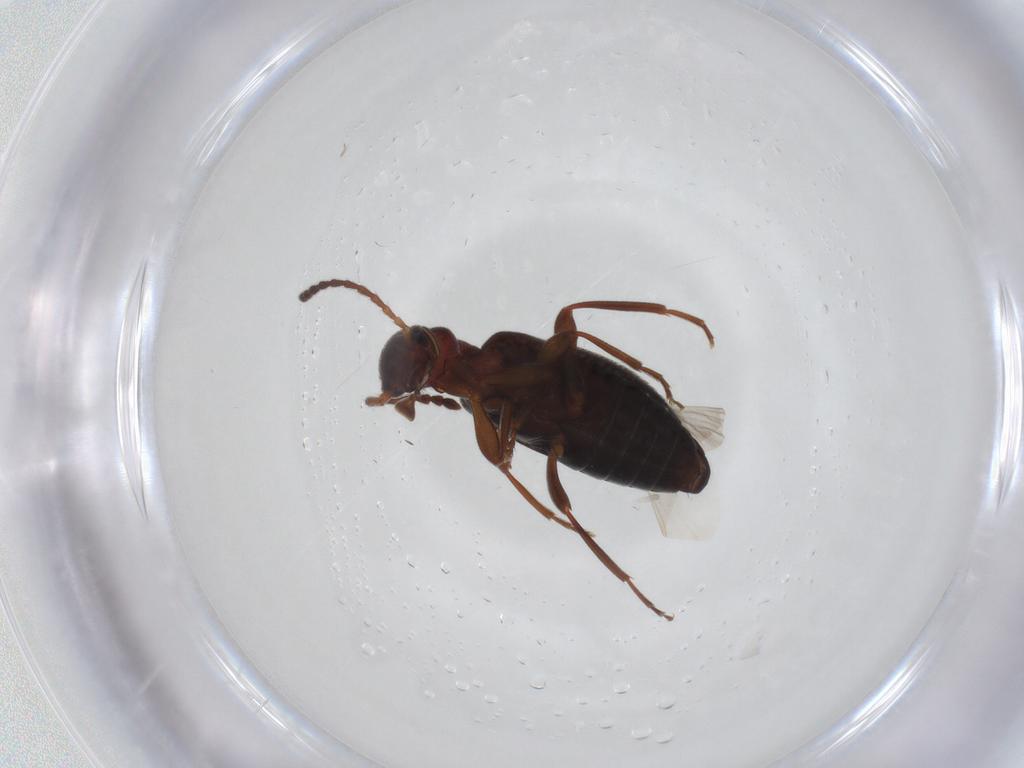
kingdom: Animalia
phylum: Arthropoda
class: Insecta
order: Coleoptera
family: Anthicidae
